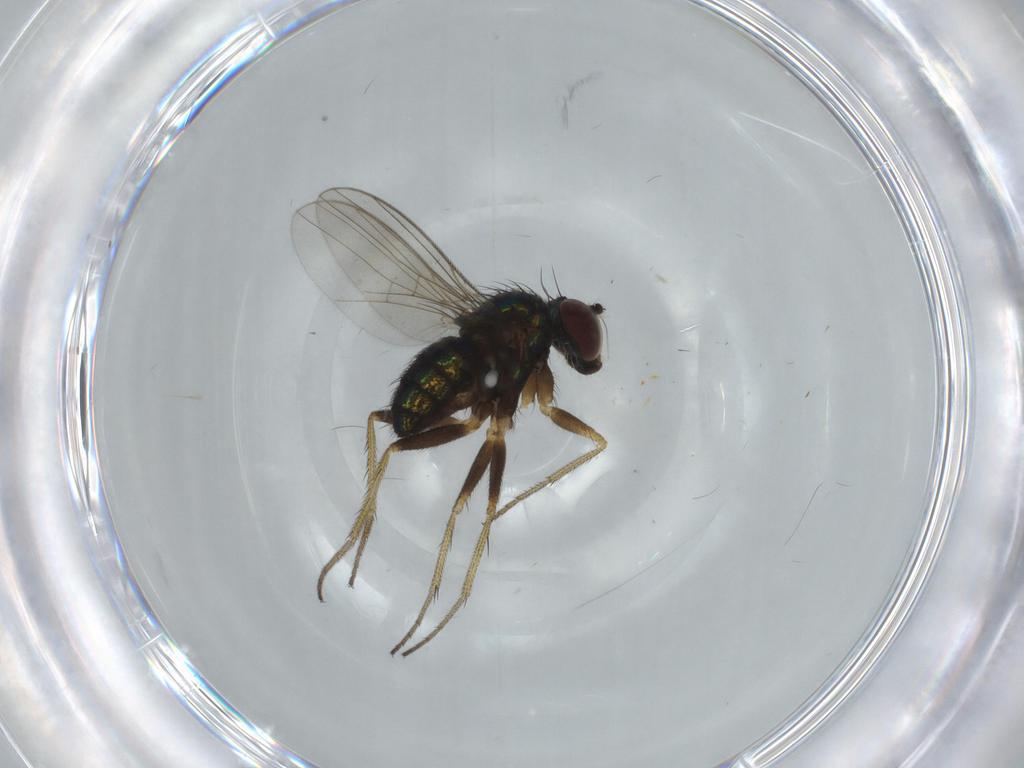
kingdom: Animalia
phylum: Arthropoda
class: Insecta
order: Diptera
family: Dolichopodidae
